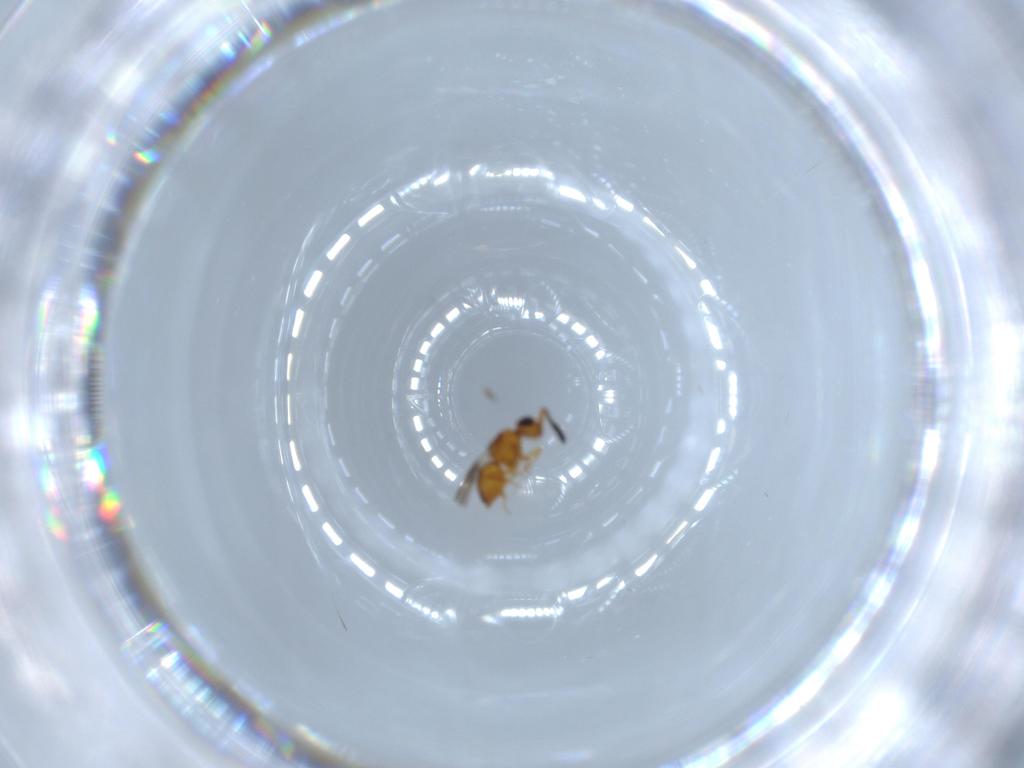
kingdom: Animalia
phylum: Arthropoda
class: Insecta
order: Hymenoptera
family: Ceraphronidae
